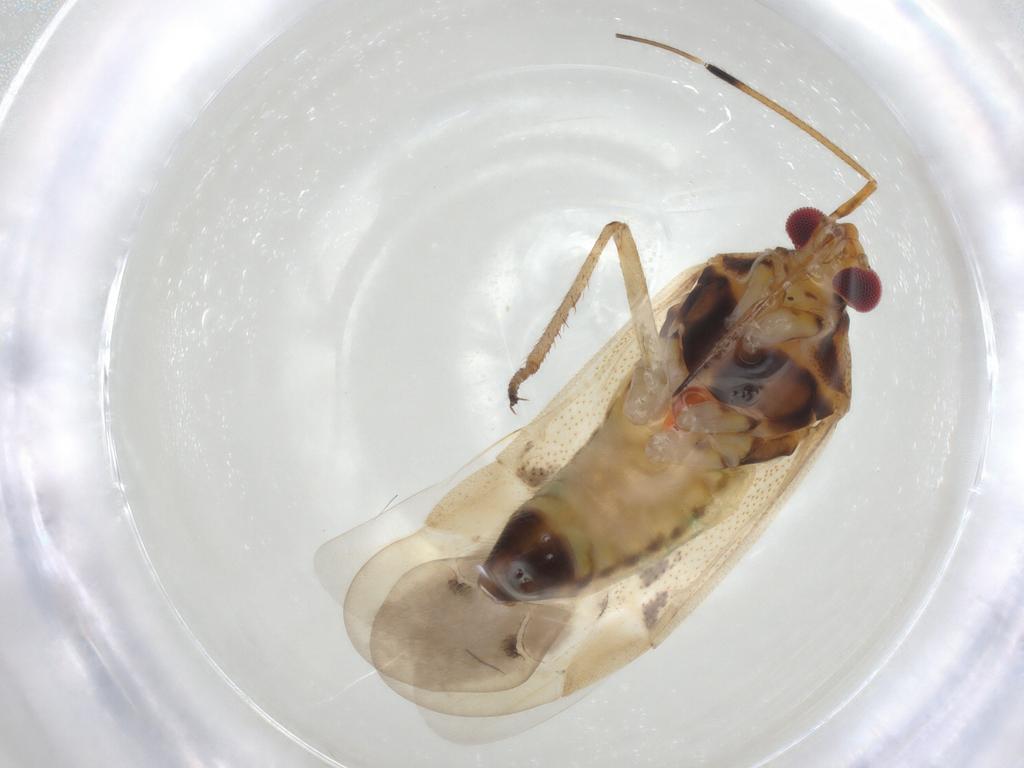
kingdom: Animalia
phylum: Arthropoda
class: Insecta
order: Hemiptera
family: Cicadellidae
